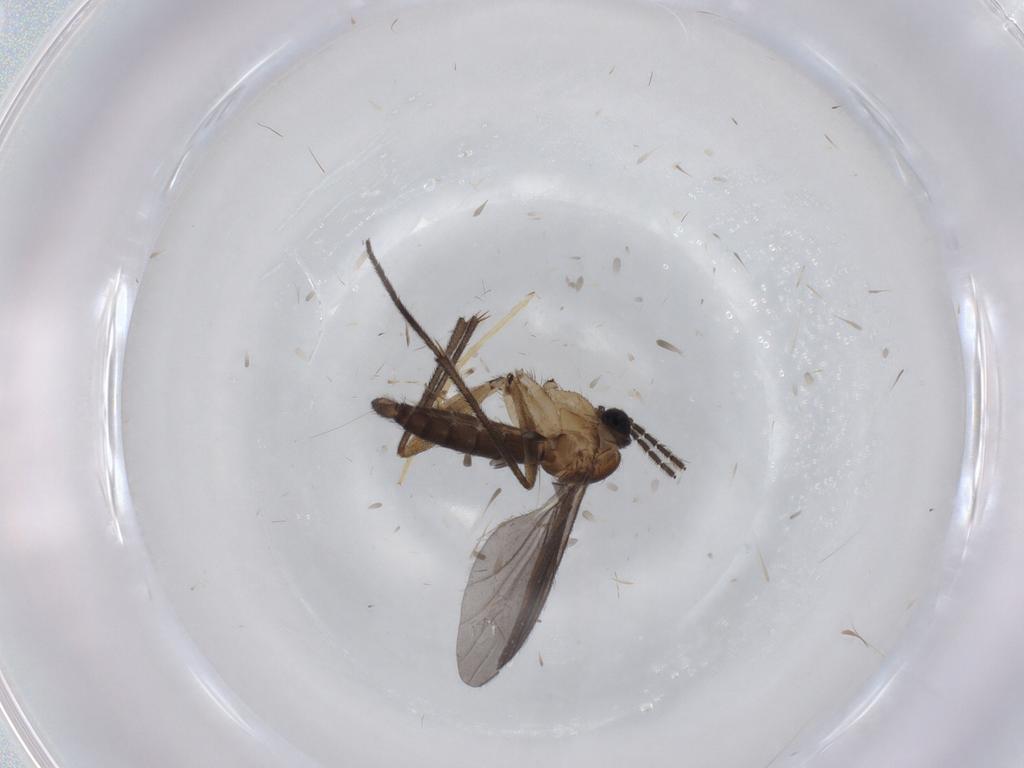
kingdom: Animalia
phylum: Arthropoda
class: Insecta
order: Diptera
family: Sciaridae
